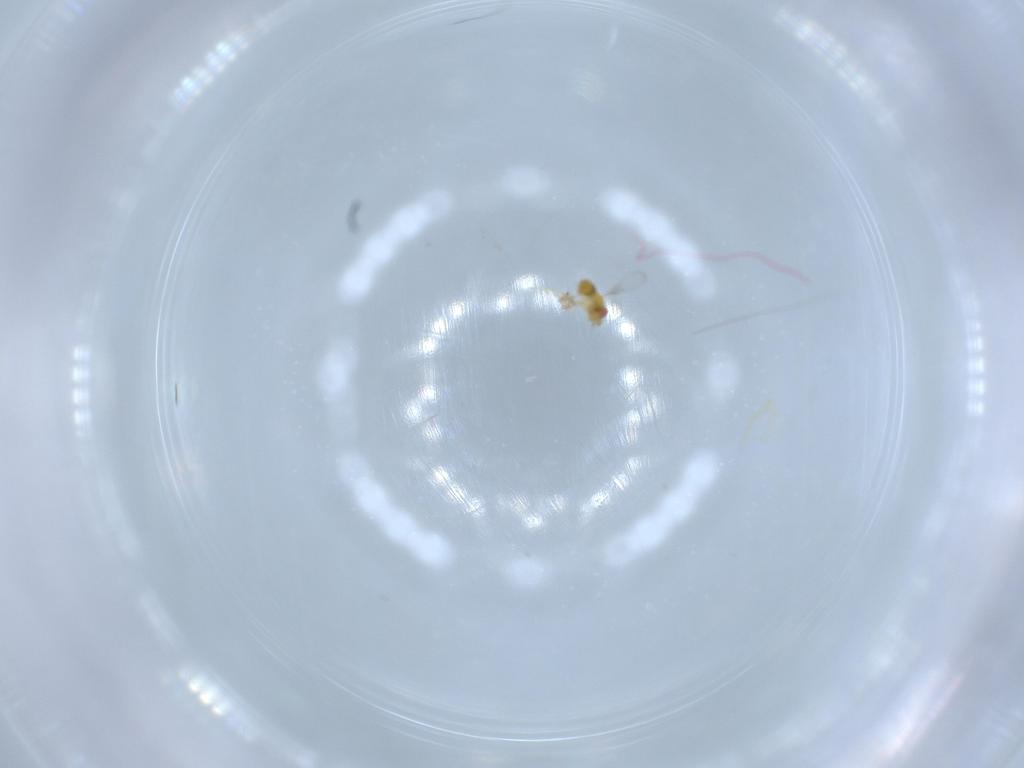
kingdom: Animalia
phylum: Arthropoda
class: Insecta
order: Hymenoptera
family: Trichogrammatidae
